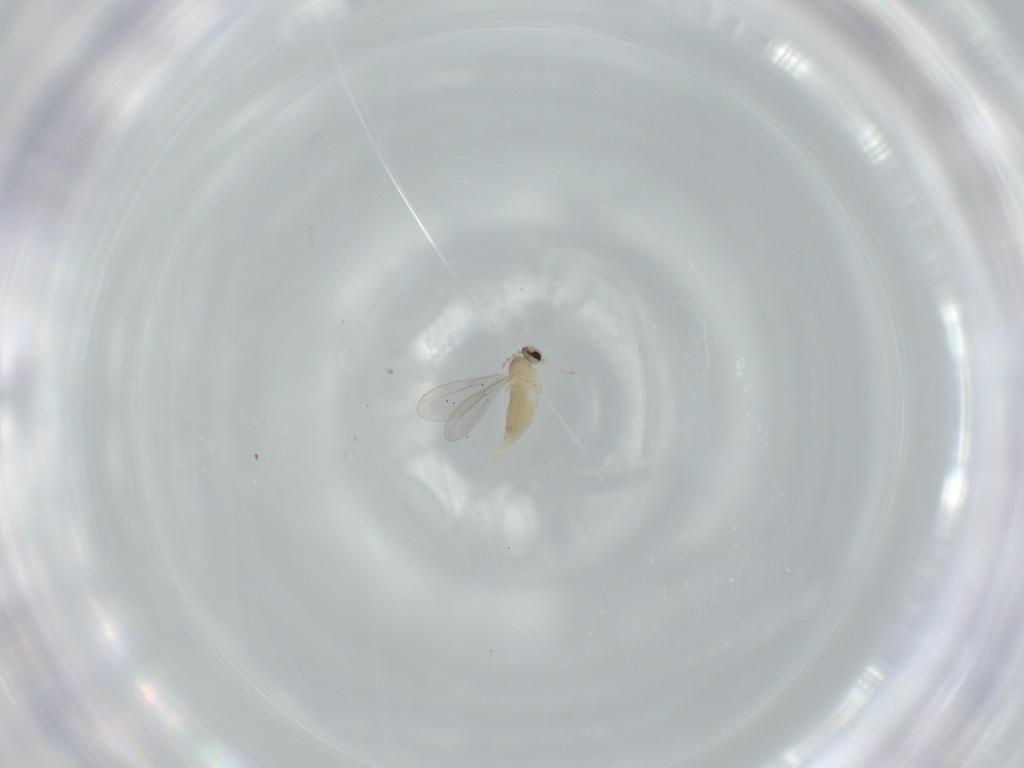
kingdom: Animalia
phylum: Arthropoda
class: Insecta
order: Diptera
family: Cecidomyiidae
